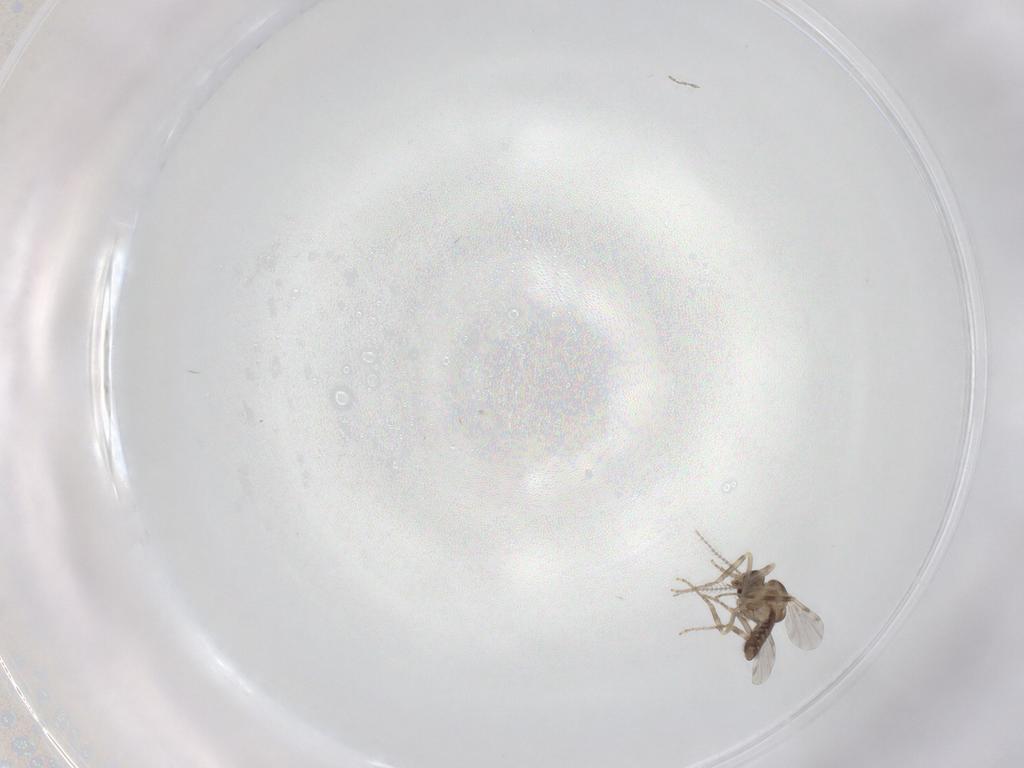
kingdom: Animalia
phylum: Arthropoda
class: Insecta
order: Diptera
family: Ceratopogonidae
